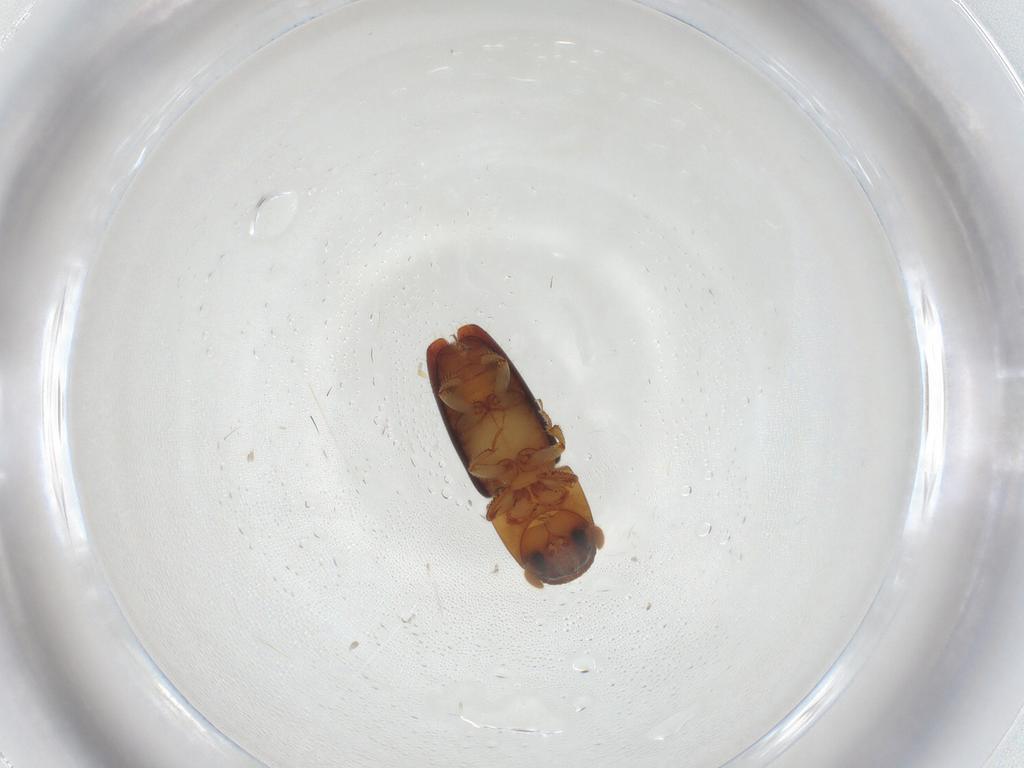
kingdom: Animalia
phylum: Arthropoda
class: Insecta
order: Coleoptera
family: Curculionidae
